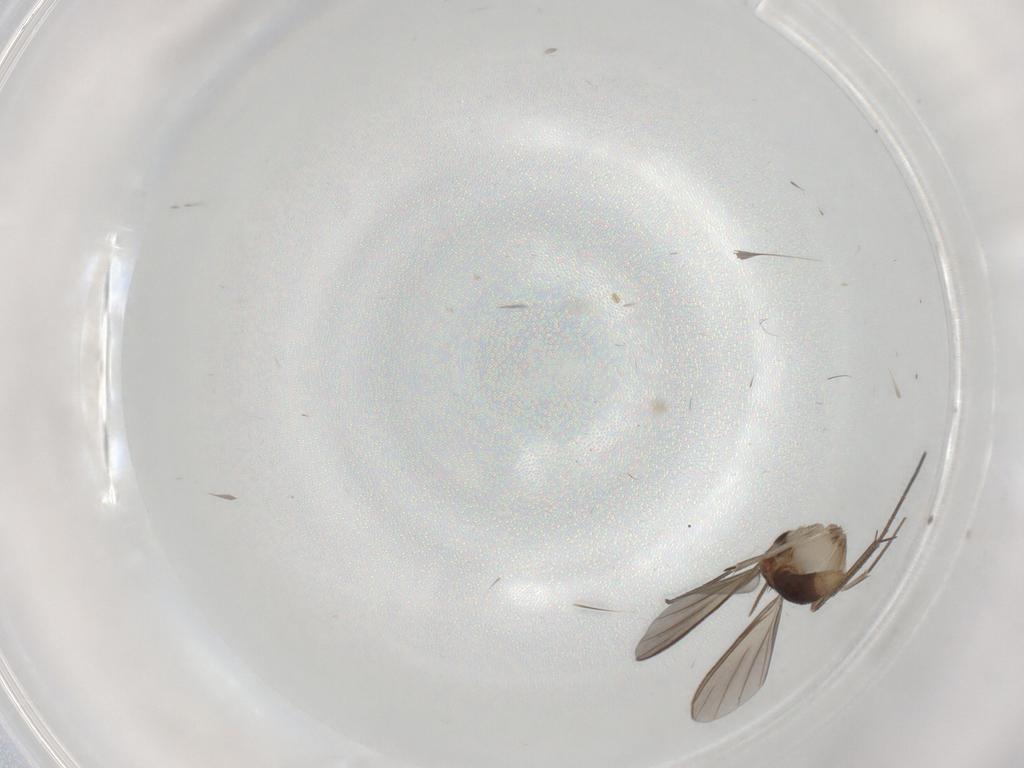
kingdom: Animalia
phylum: Arthropoda
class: Insecta
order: Diptera
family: Mycetophilidae
